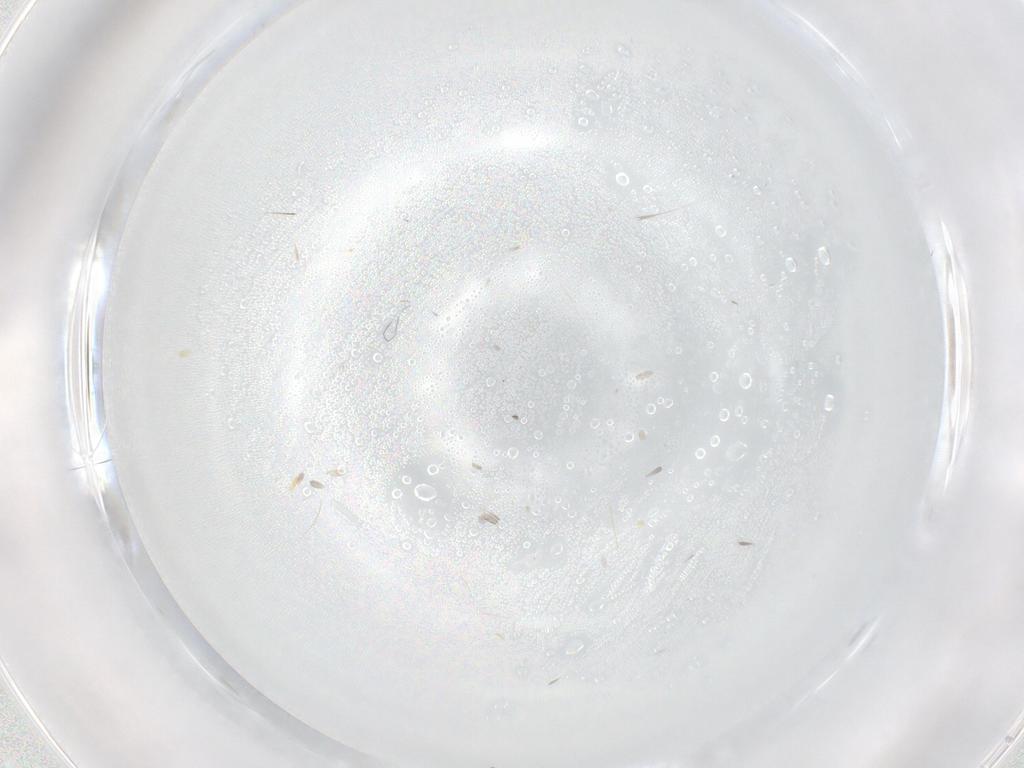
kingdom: Animalia
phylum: Arthropoda
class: Insecta
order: Diptera
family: Cecidomyiidae
